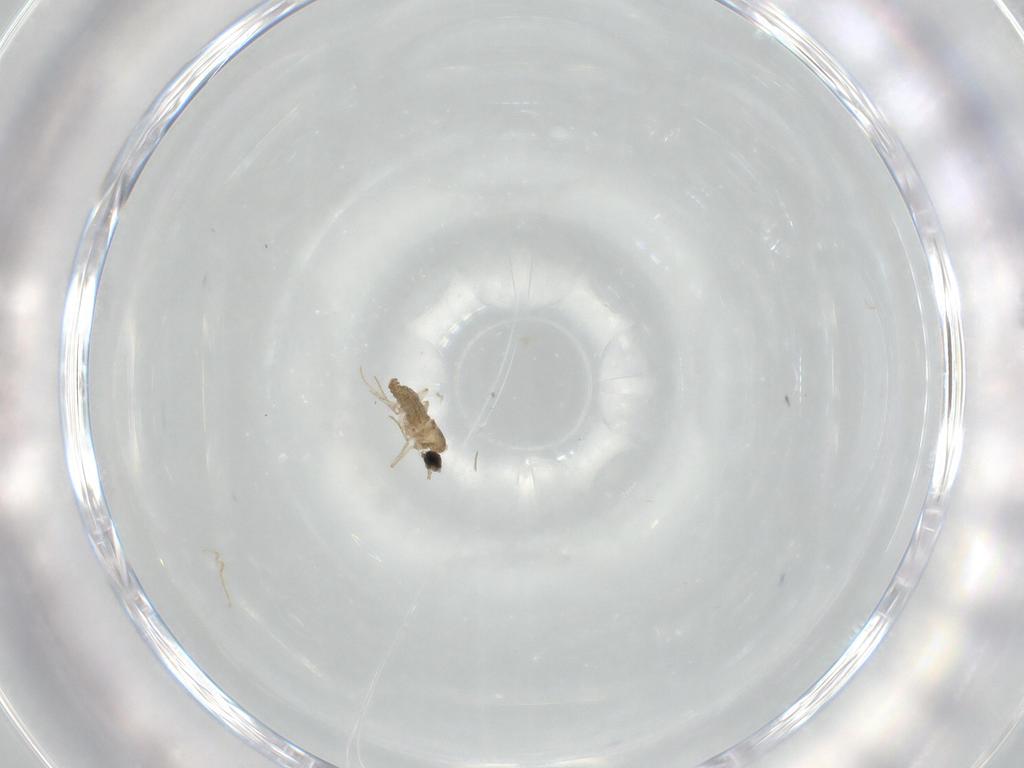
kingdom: Animalia
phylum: Arthropoda
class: Insecta
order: Diptera
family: Cecidomyiidae
